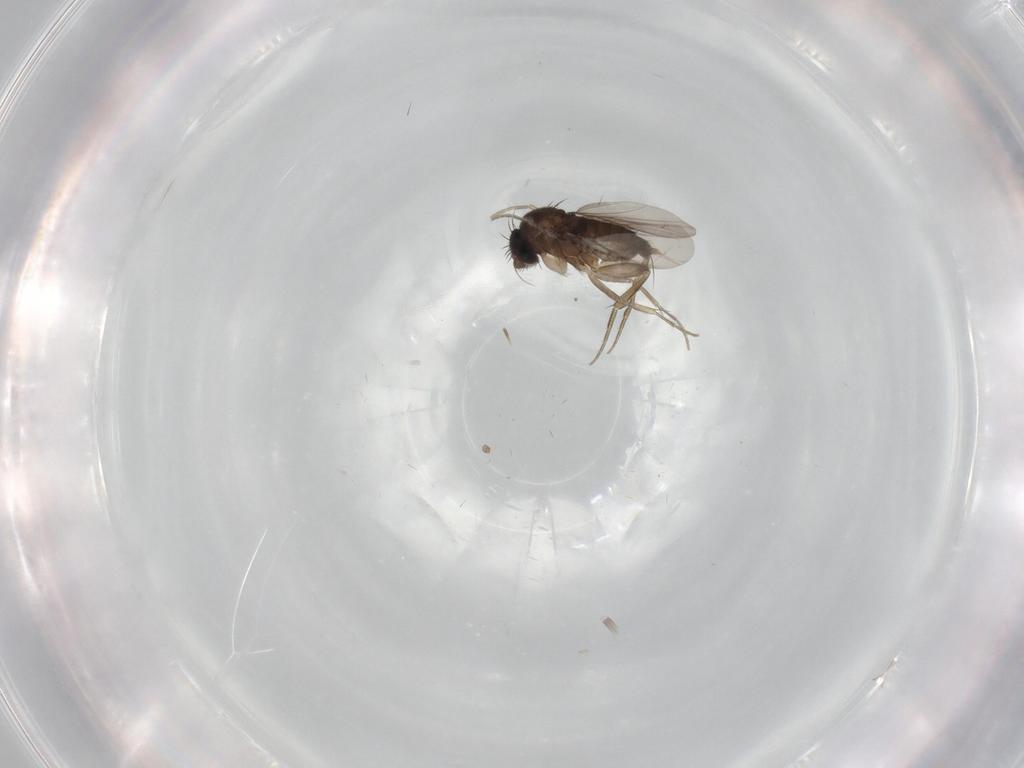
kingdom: Animalia
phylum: Arthropoda
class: Insecta
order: Diptera
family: Phoridae
